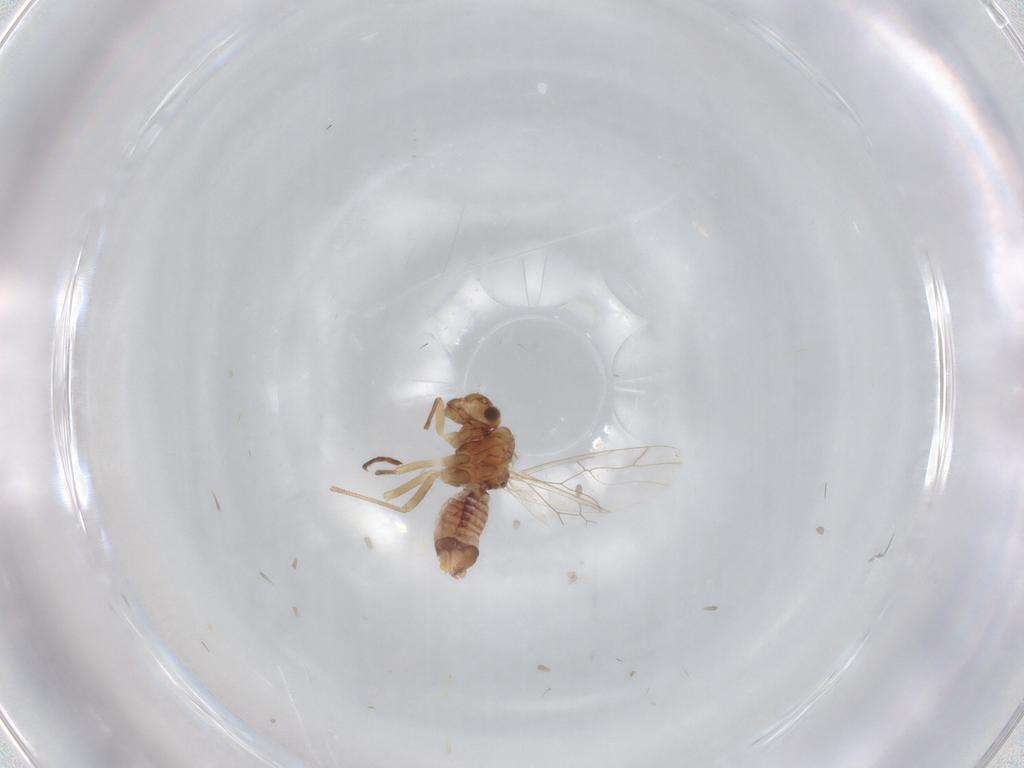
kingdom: Animalia
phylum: Arthropoda
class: Insecta
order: Psocodea
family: Lachesillidae
